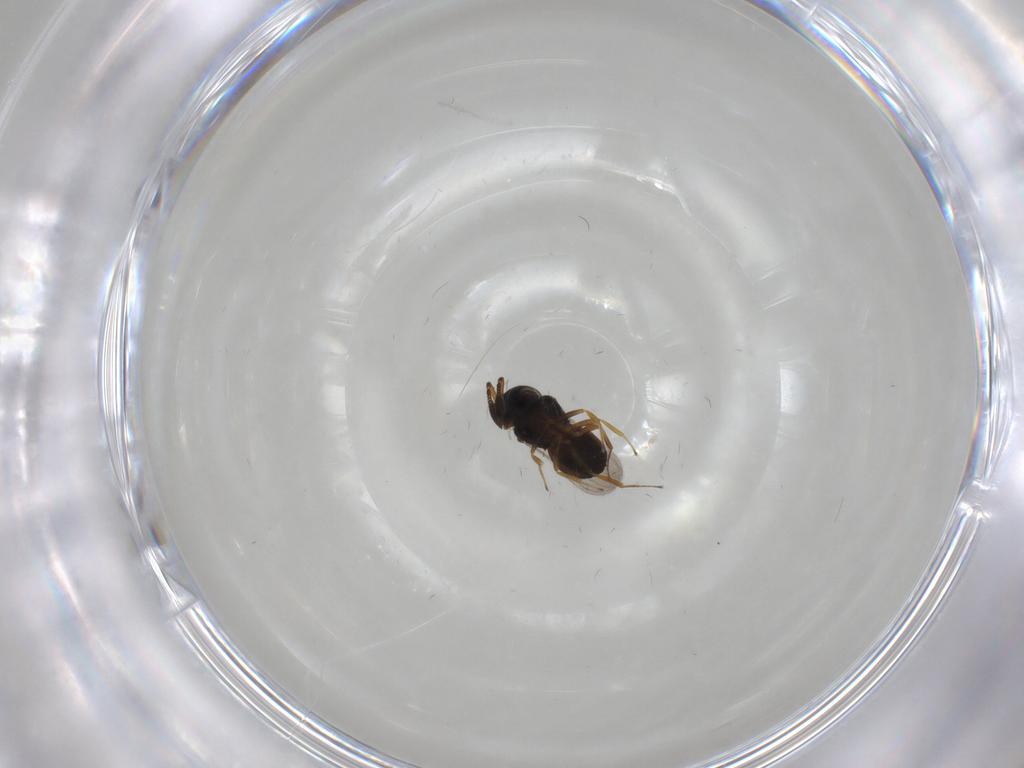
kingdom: Animalia
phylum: Arthropoda
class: Insecta
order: Hymenoptera
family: Scelionidae
